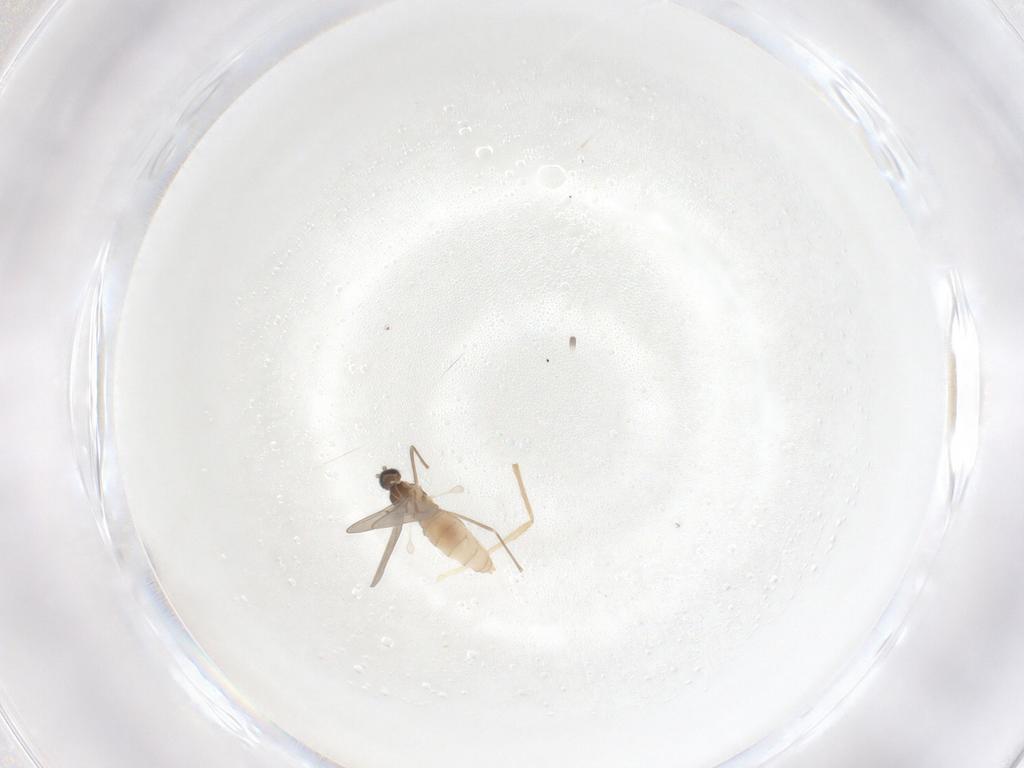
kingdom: Animalia
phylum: Arthropoda
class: Insecta
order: Diptera
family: Cecidomyiidae
